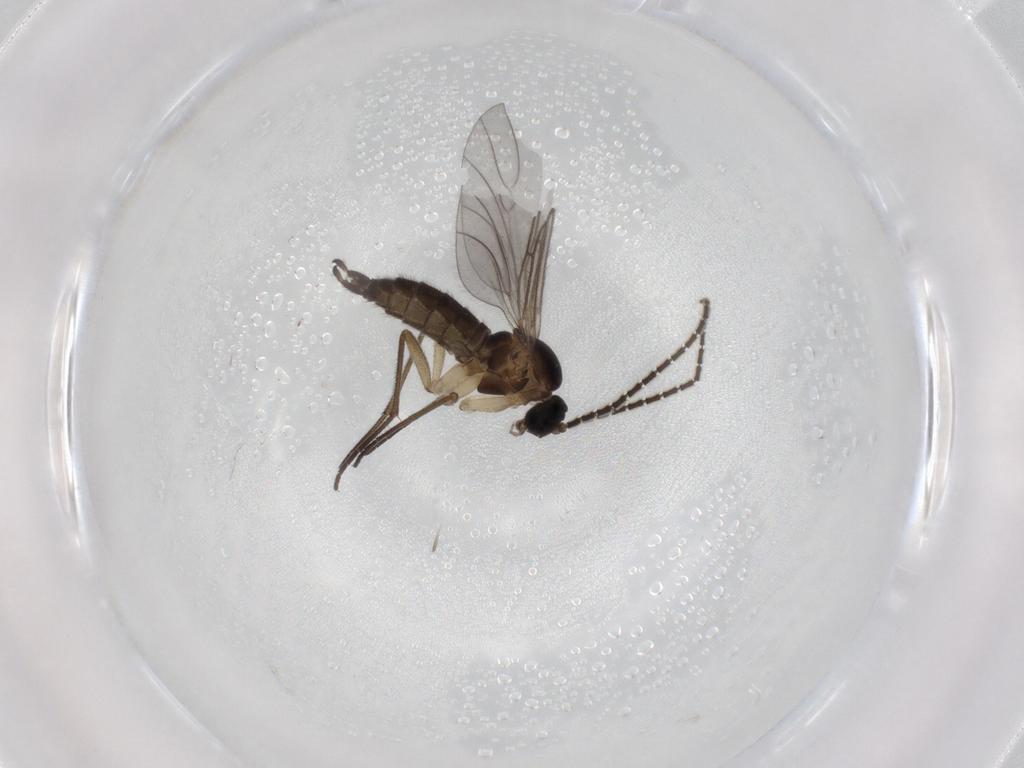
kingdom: Animalia
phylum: Arthropoda
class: Insecta
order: Diptera
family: Sciaridae
